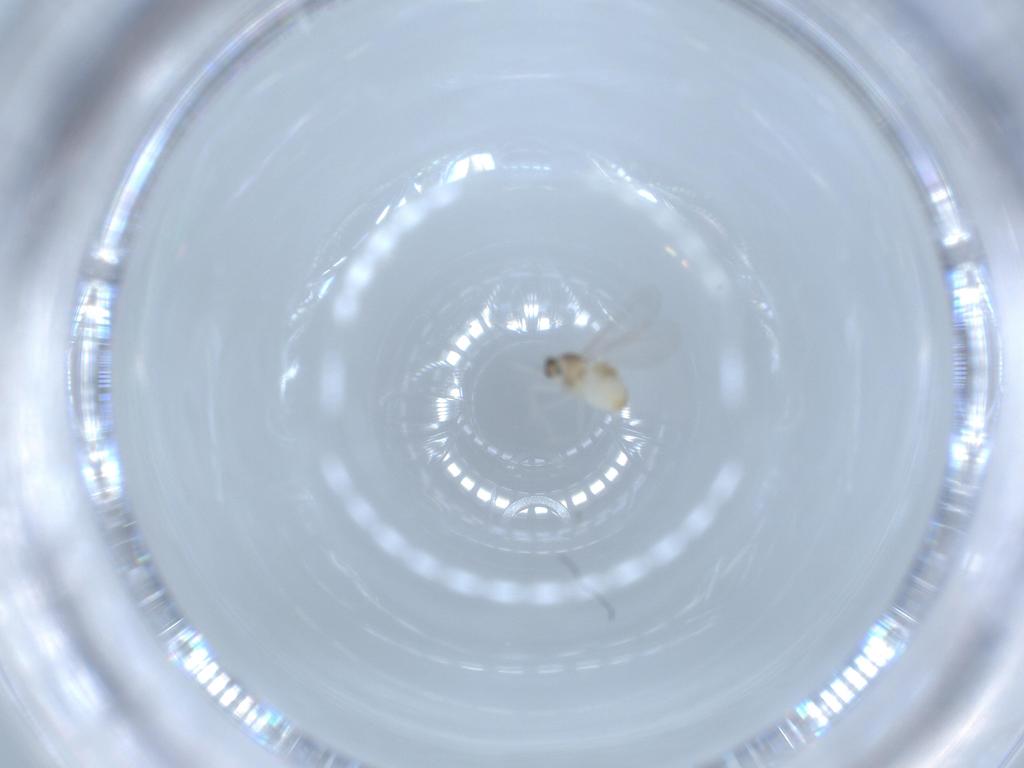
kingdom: Animalia
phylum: Arthropoda
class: Insecta
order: Diptera
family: Cecidomyiidae
